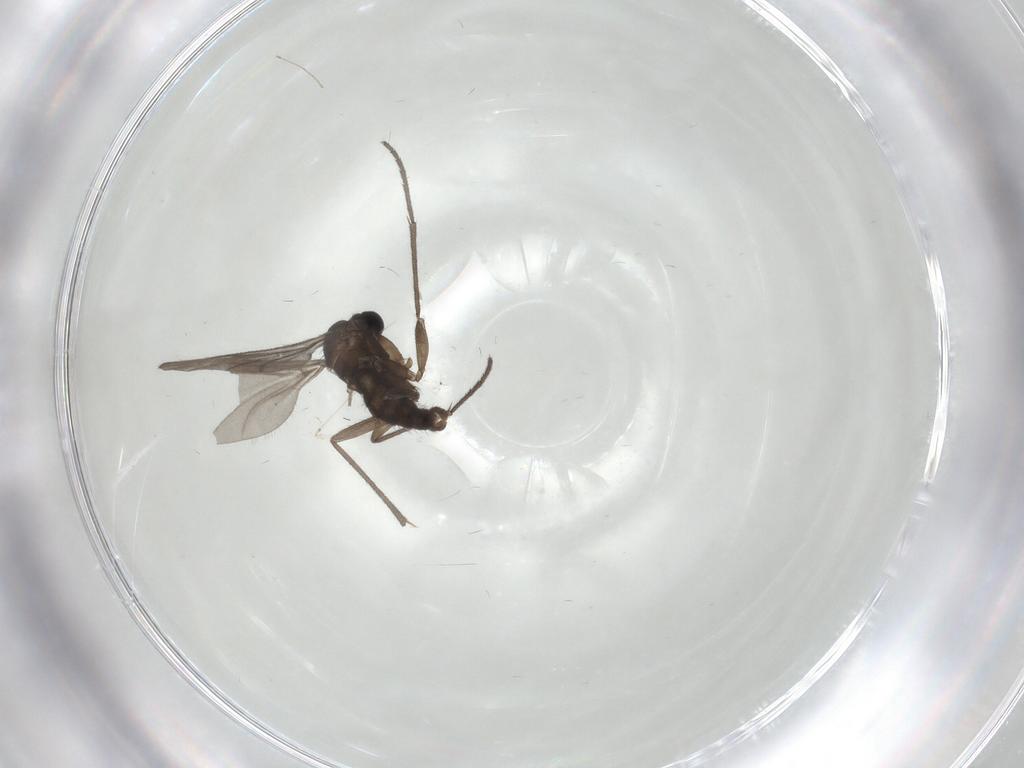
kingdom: Animalia
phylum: Arthropoda
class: Insecta
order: Diptera
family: Sciaridae
